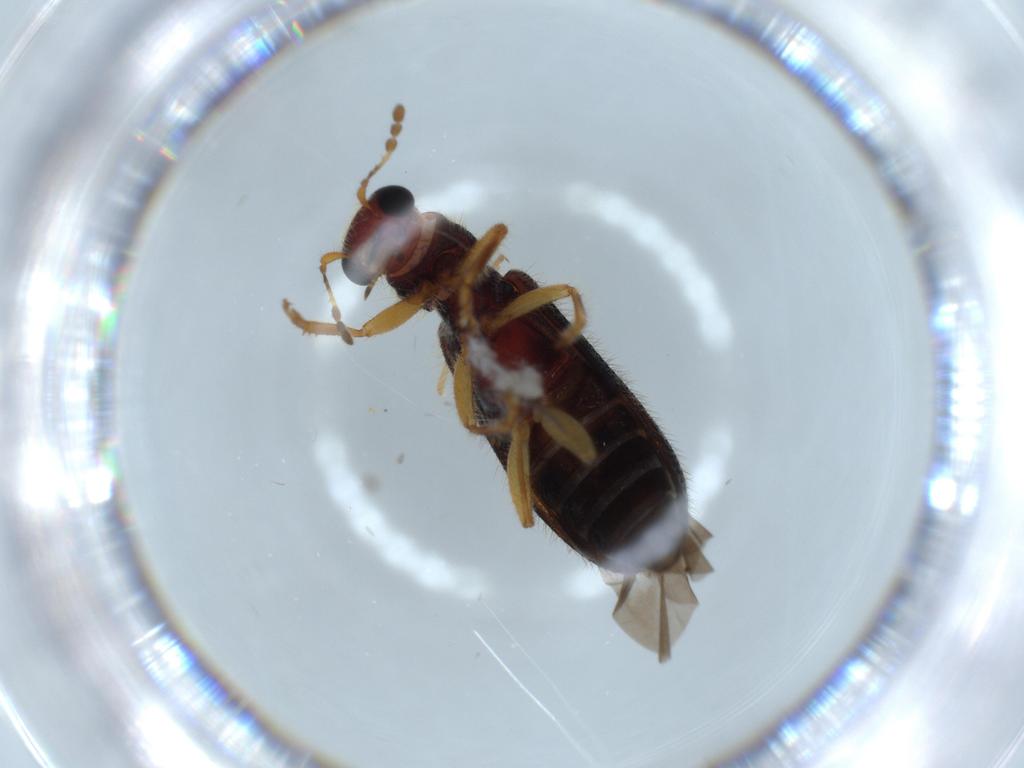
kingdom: Animalia
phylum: Arthropoda
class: Insecta
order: Coleoptera
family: Cleridae
